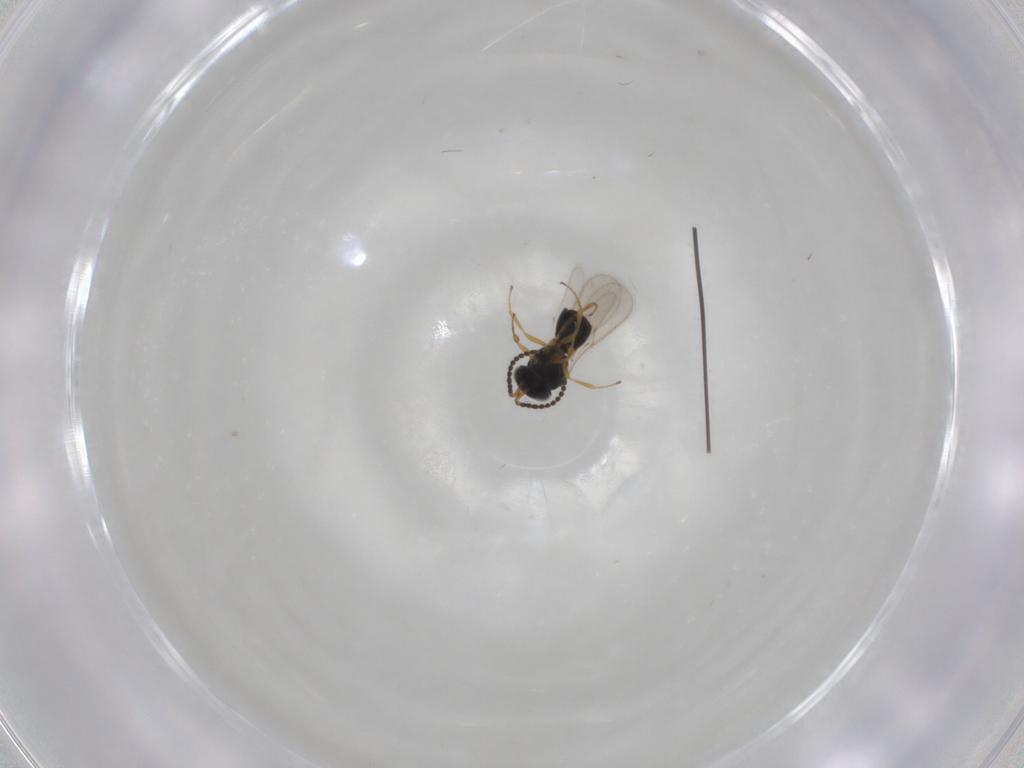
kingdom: Animalia
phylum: Arthropoda
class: Insecta
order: Hymenoptera
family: Scelionidae
